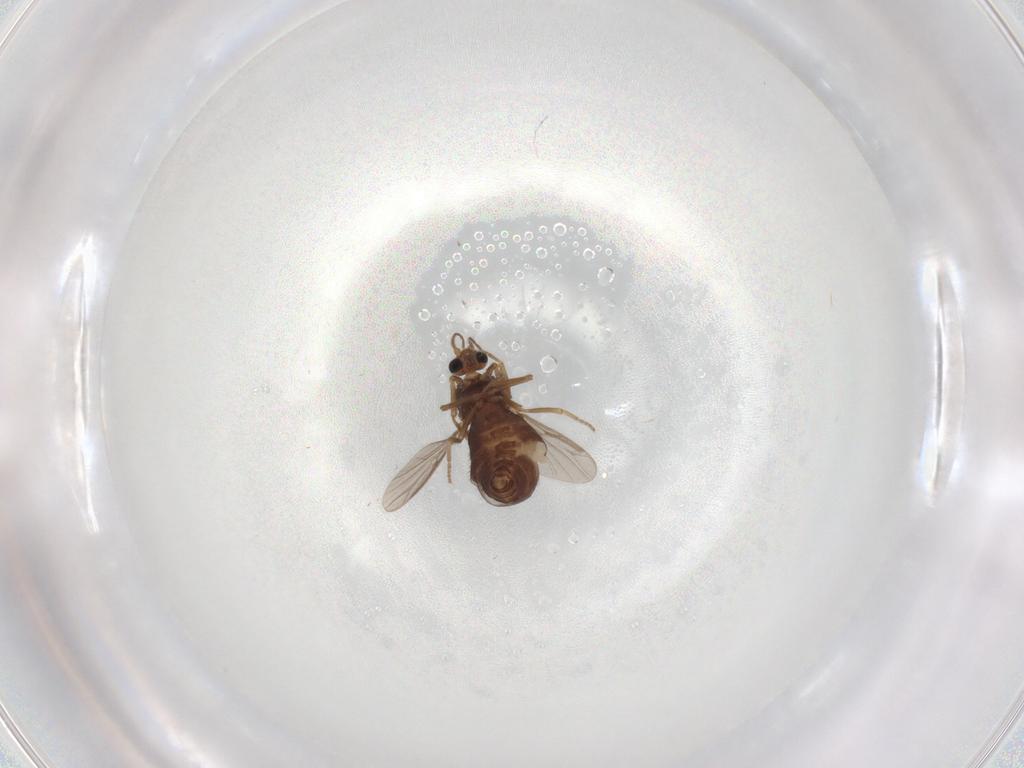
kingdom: Animalia
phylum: Arthropoda
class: Insecta
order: Diptera
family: Ceratopogonidae
